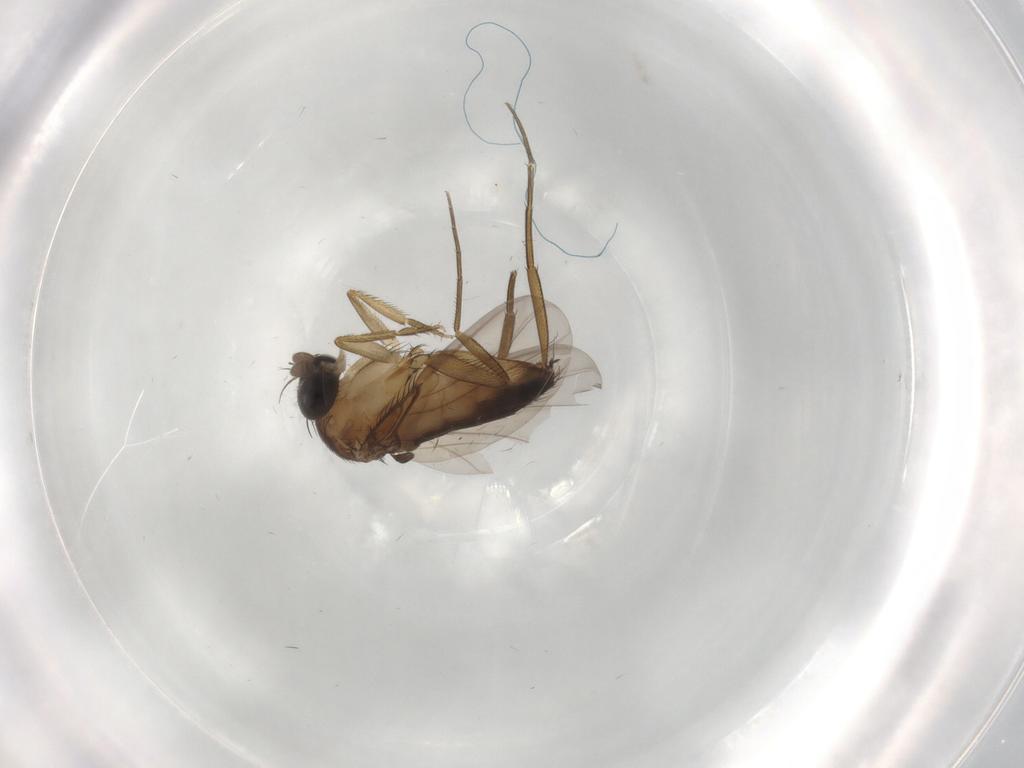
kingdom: Animalia
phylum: Arthropoda
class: Insecta
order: Diptera
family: Phoridae
